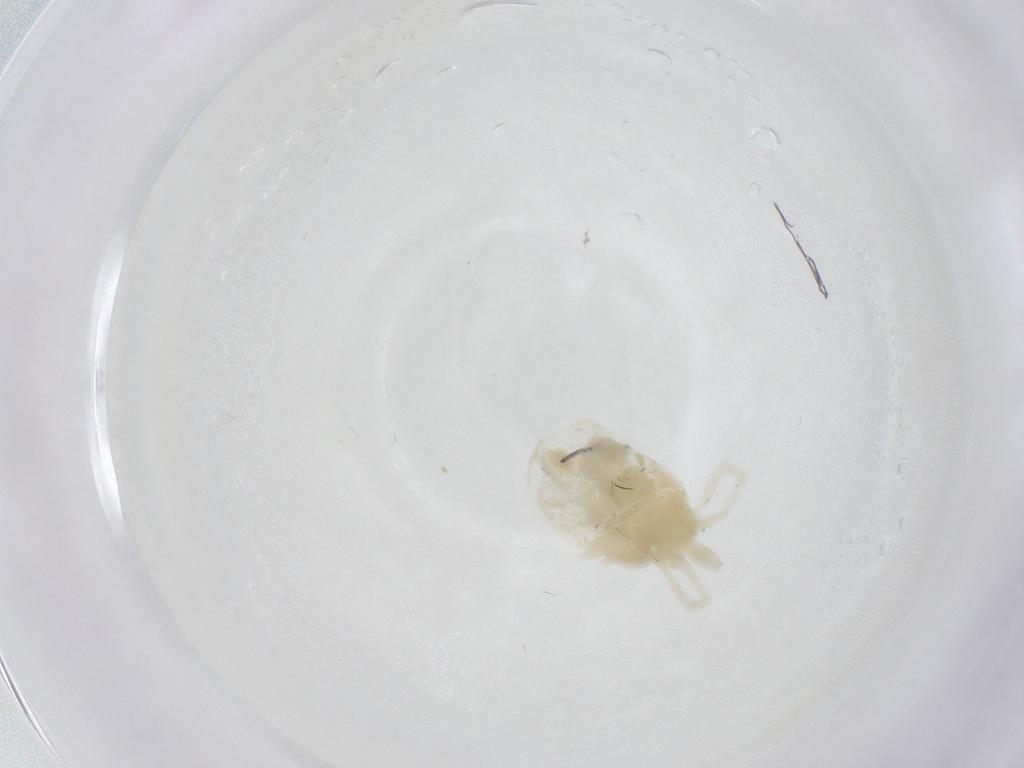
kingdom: Animalia
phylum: Arthropoda
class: Arachnida
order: Trombidiformes
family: Teneriffiidae
